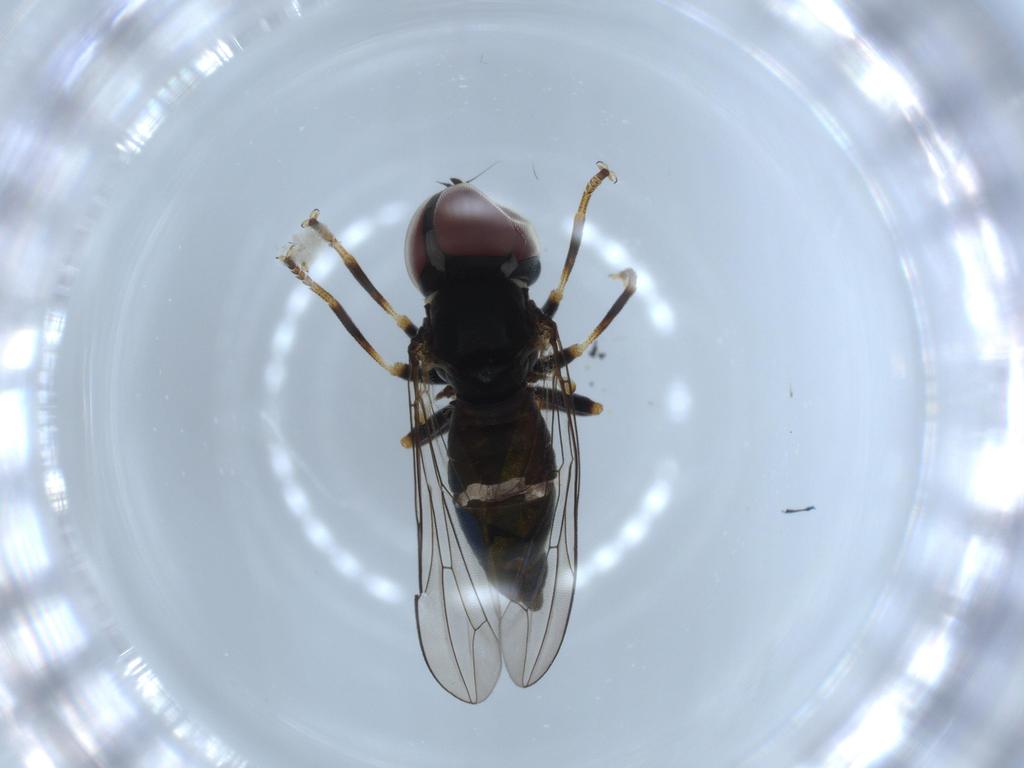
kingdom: Animalia
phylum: Arthropoda
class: Insecta
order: Diptera
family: Pipunculidae
